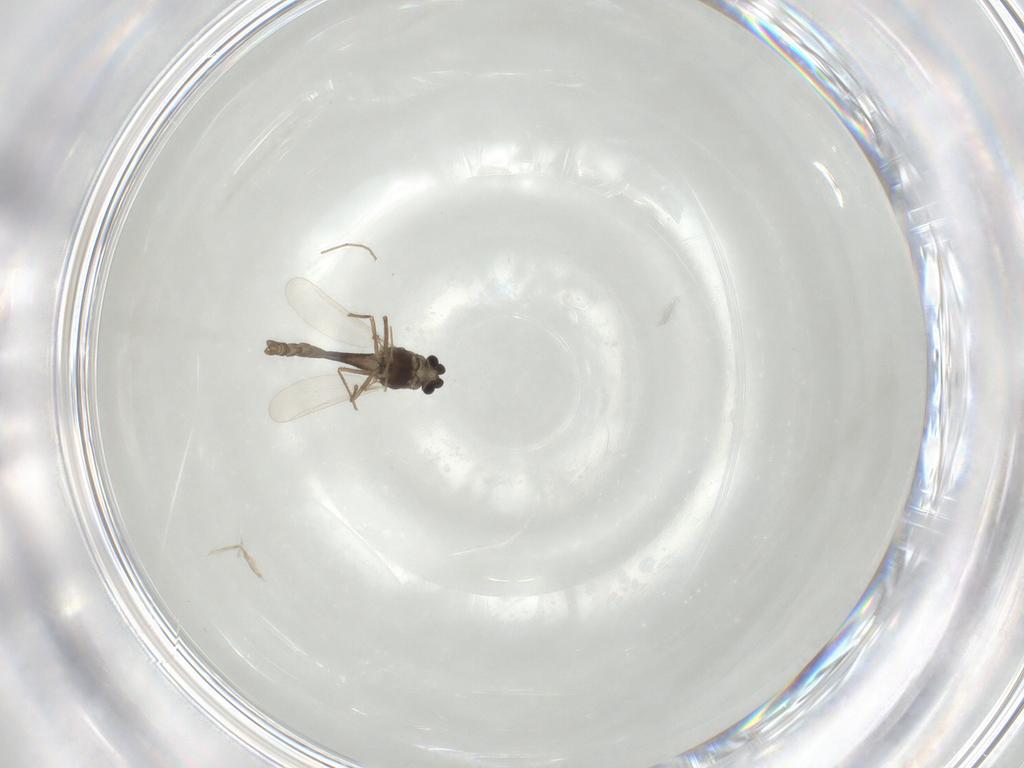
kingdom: Animalia
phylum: Arthropoda
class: Insecta
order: Diptera
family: Chironomidae
